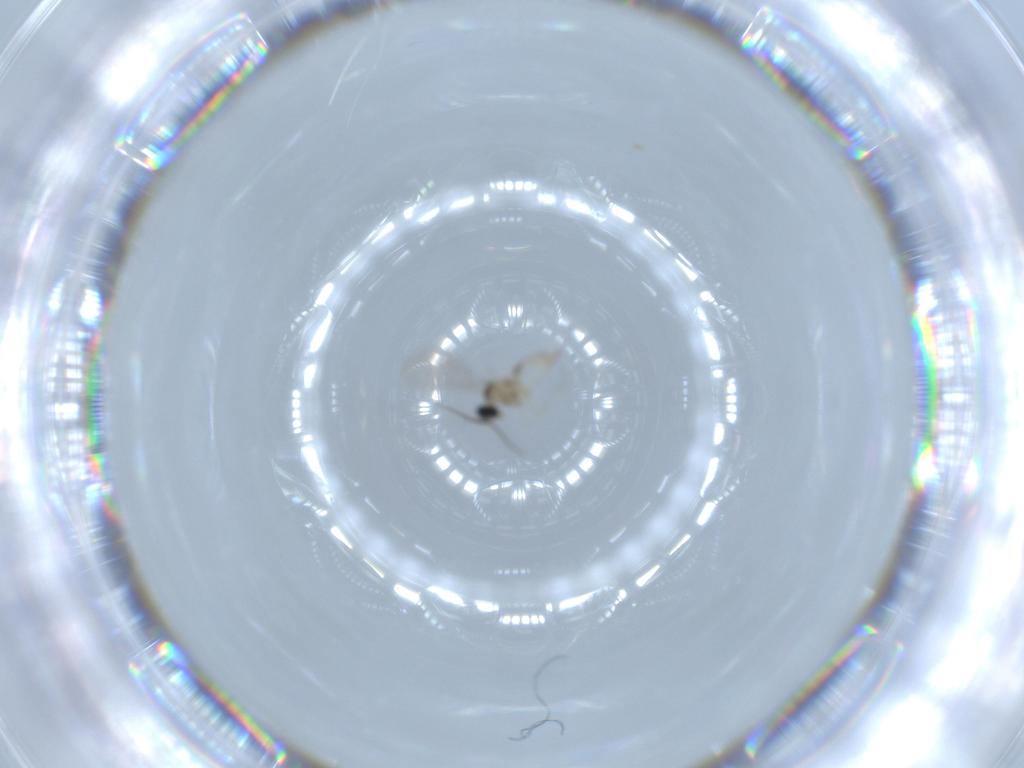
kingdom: Animalia
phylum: Arthropoda
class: Insecta
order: Diptera
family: Cecidomyiidae
